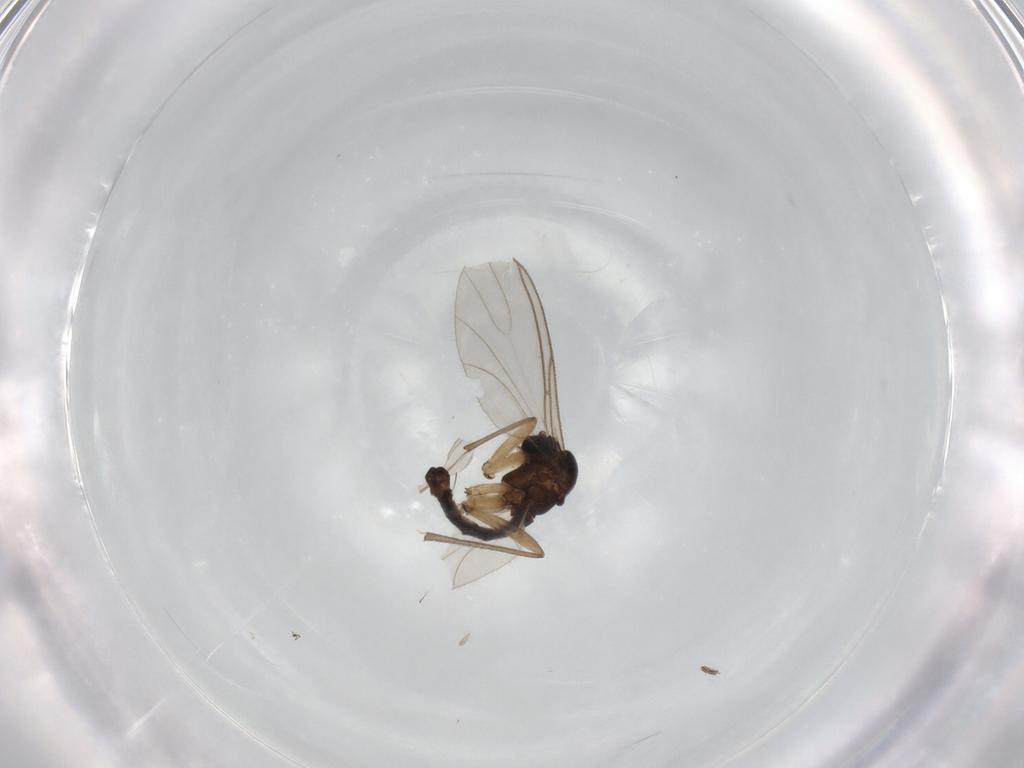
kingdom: Animalia
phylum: Arthropoda
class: Insecta
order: Diptera
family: Sciaridae
